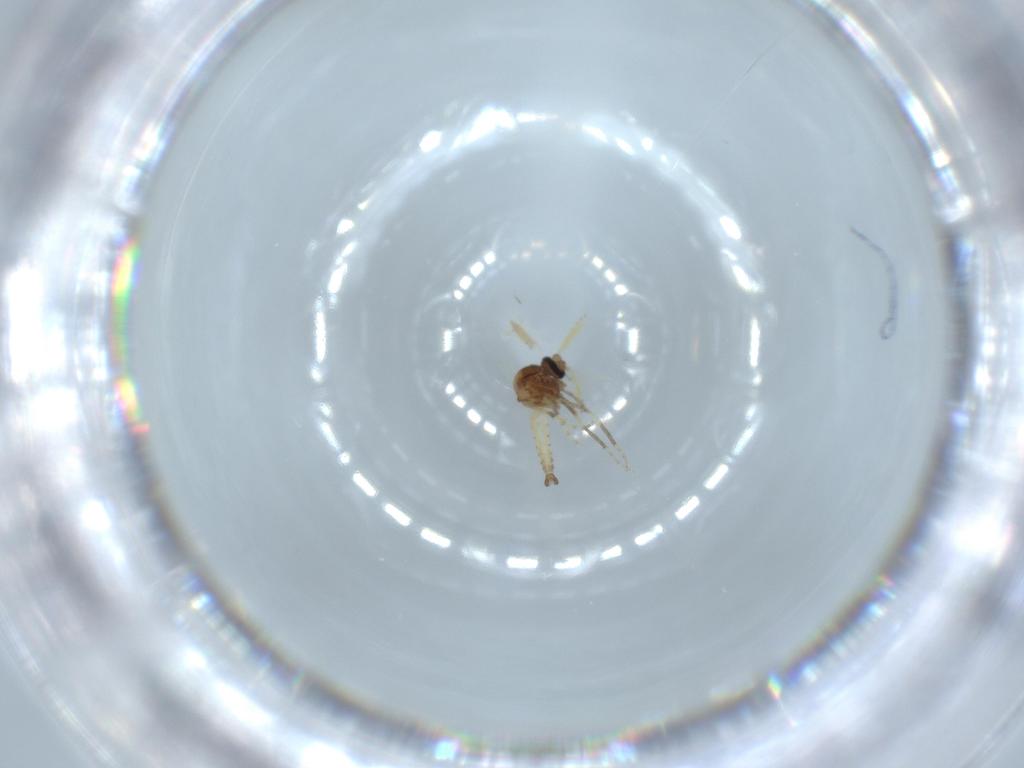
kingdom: Animalia
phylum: Arthropoda
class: Insecta
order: Diptera
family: Ceratopogonidae
